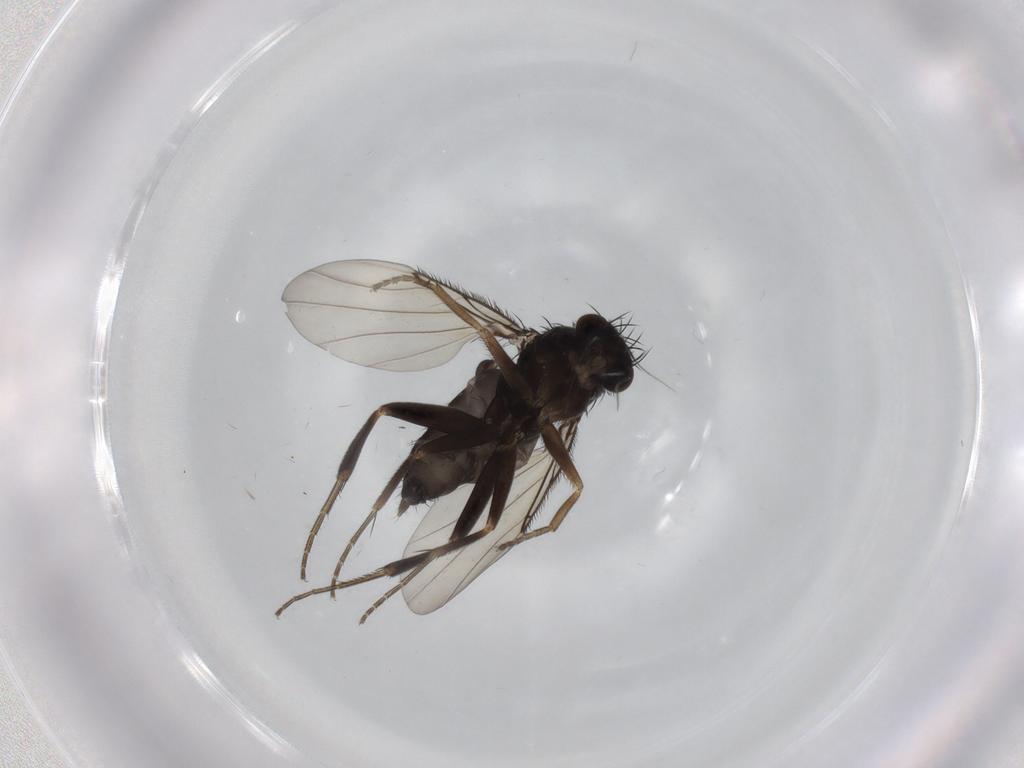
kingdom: Animalia
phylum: Arthropoda
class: Insecta
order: Diptera
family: Phoridae
